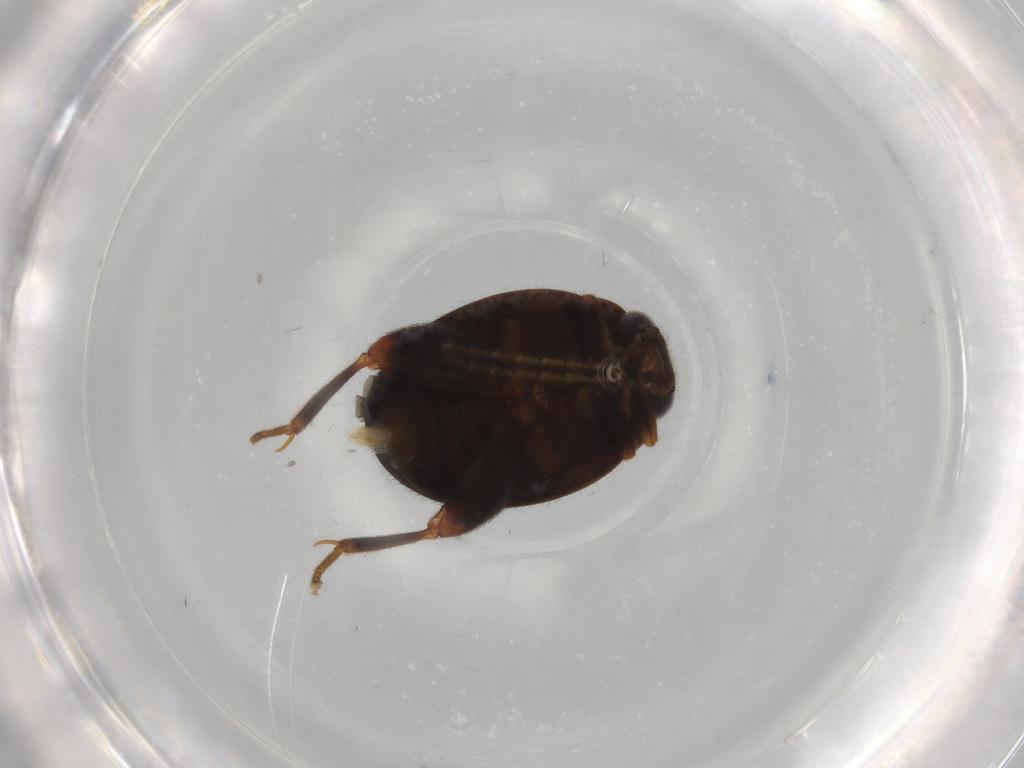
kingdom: Animalia
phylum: Arthropoda
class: Insecta
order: Coleoptera
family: Scirtidae
